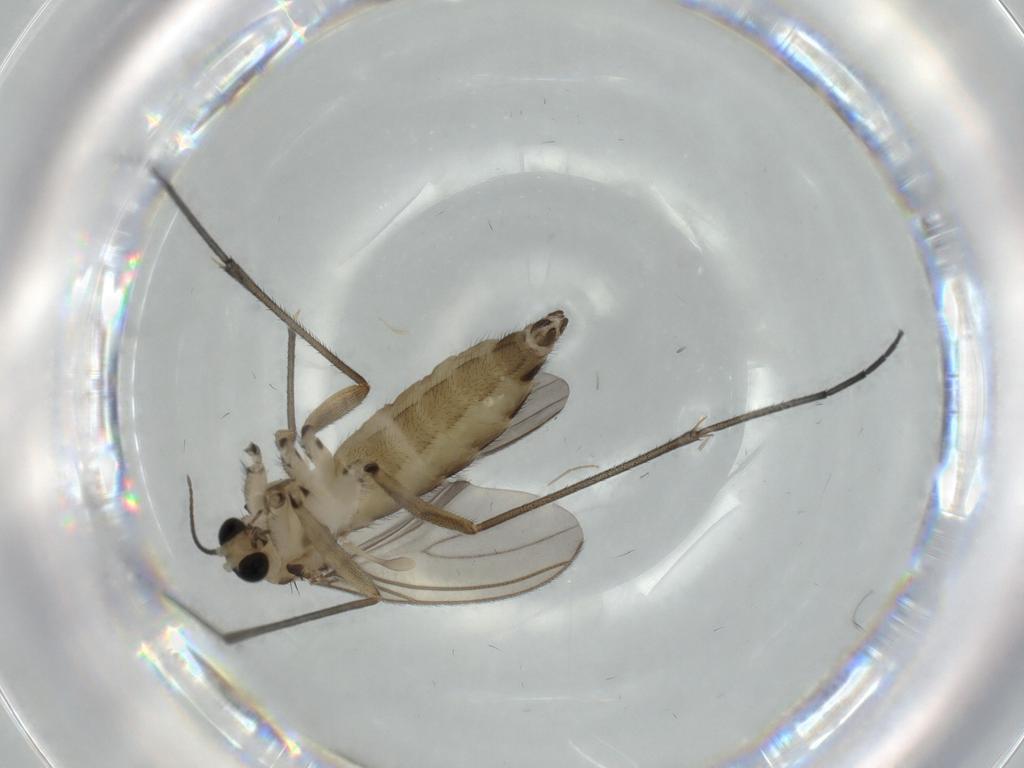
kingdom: Animalia
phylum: Arthropoda
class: Insecta
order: Diptera
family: Sciaridae
